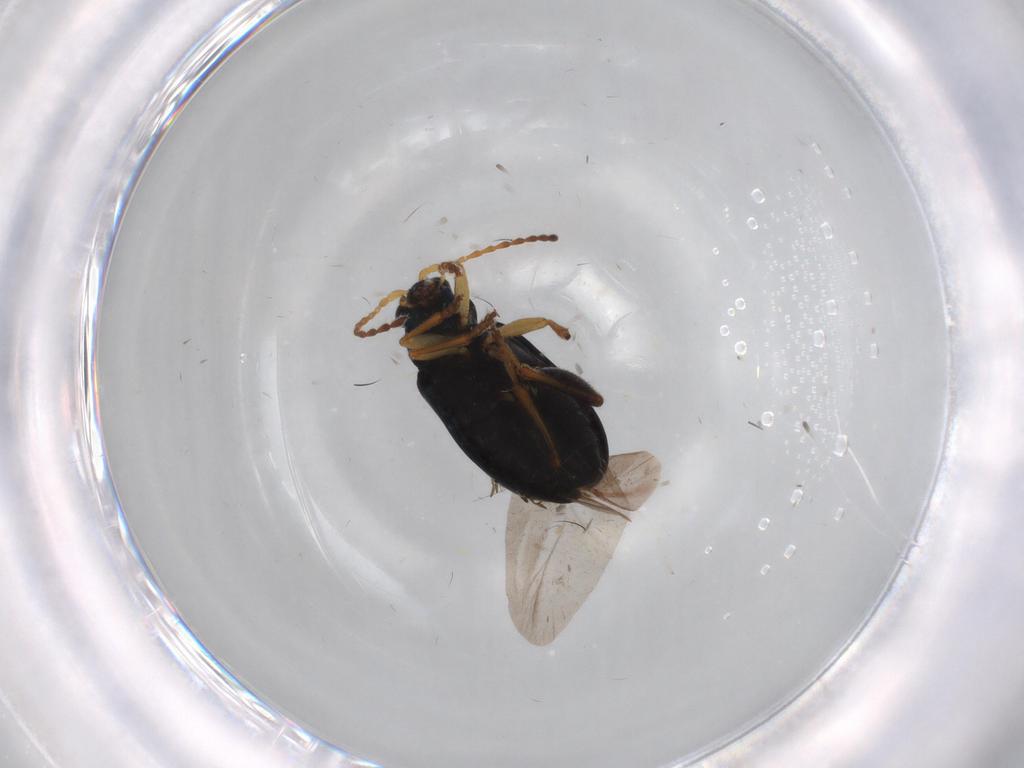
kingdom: Animalia
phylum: Arthropoda
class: Insecta
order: Coleoptera
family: Chrysomelidae
